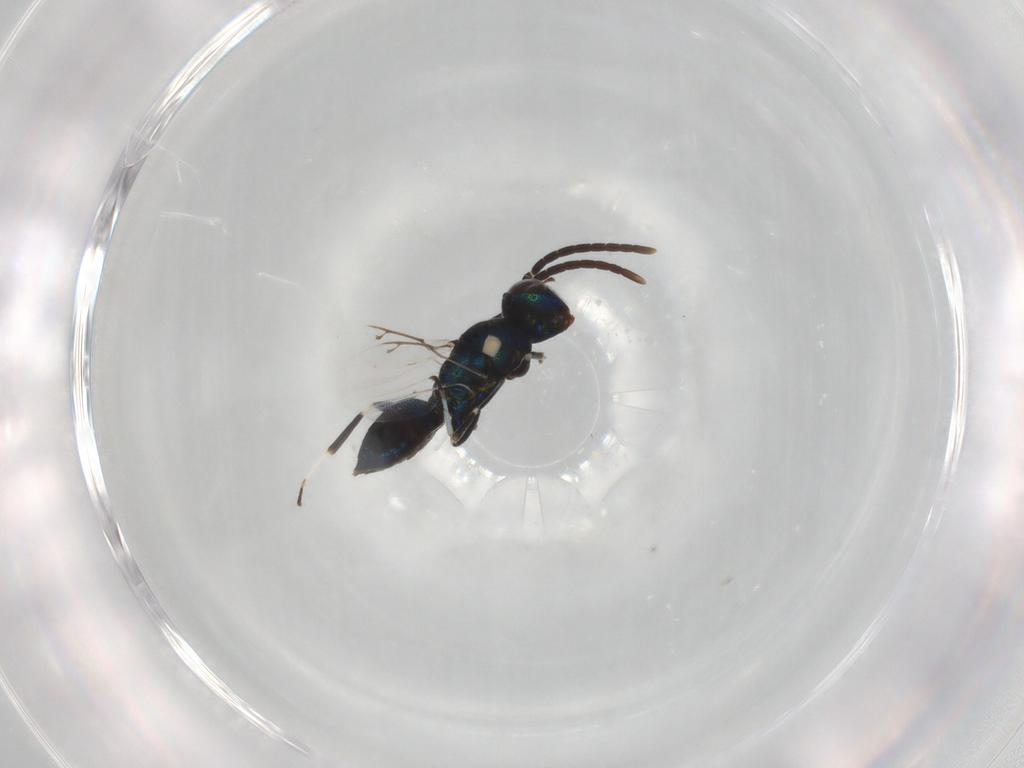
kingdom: Animalia
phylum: Arthropoda
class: Insecta
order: Hymenoptera
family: Eupelmidae
